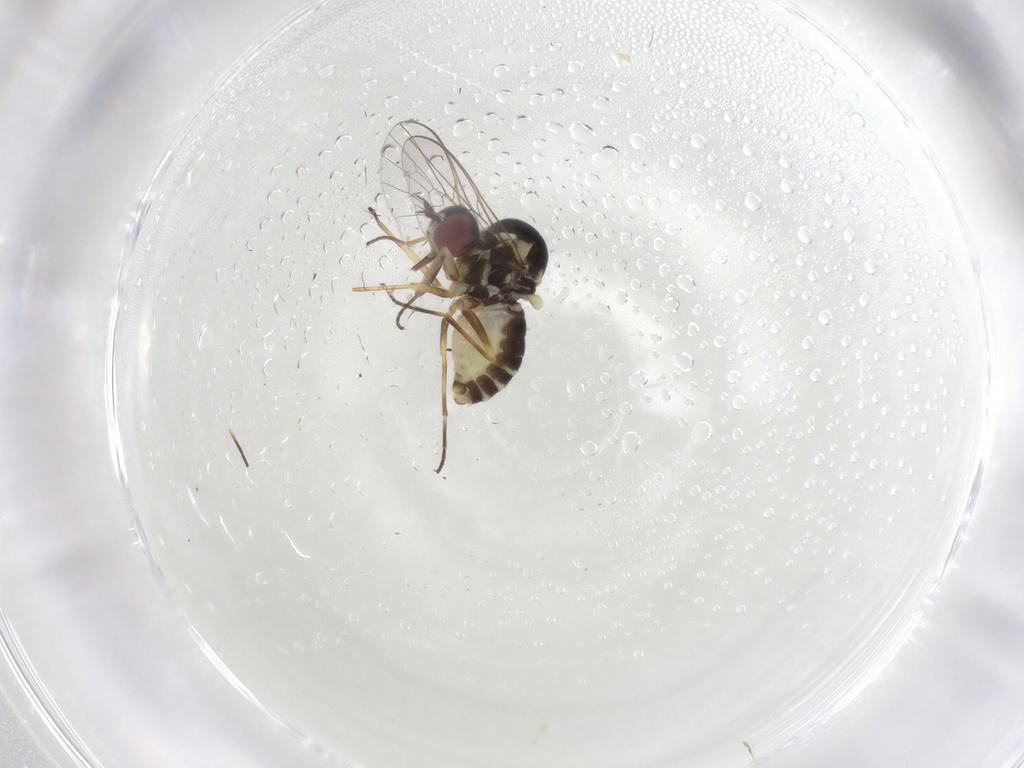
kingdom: Animalia
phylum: Arthropoda
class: Insecta
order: Diptera
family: Bombyliidae
